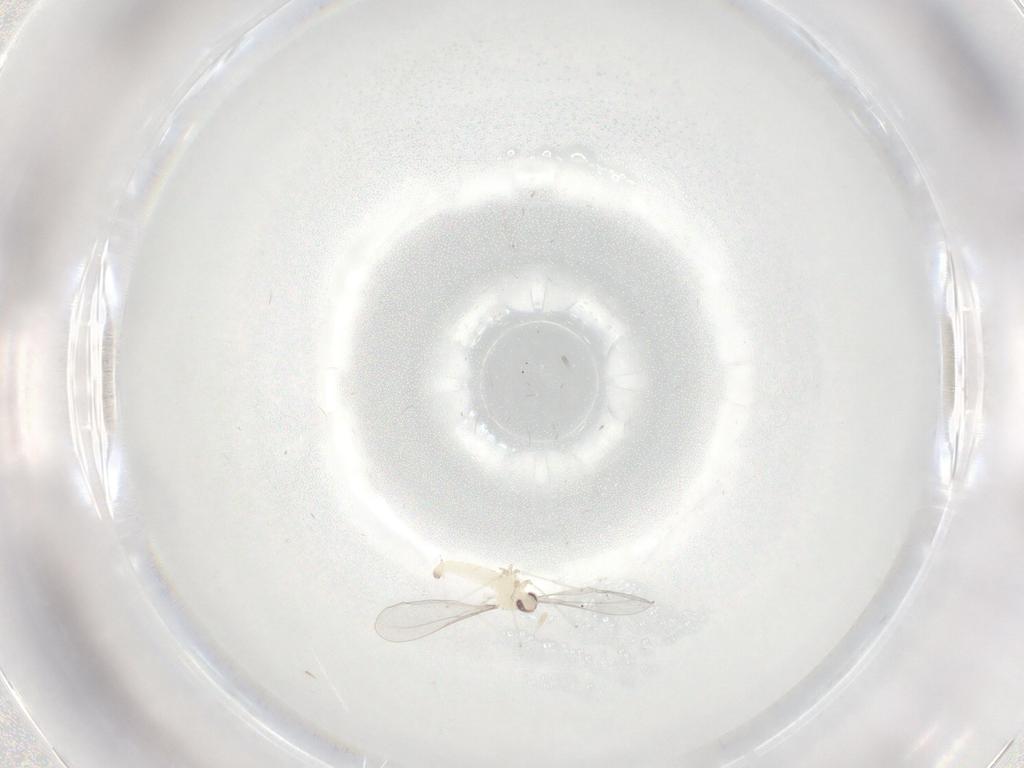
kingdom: Animalia
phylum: Arthropoda
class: Insecta
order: Diptera
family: Cecidomyiidae
